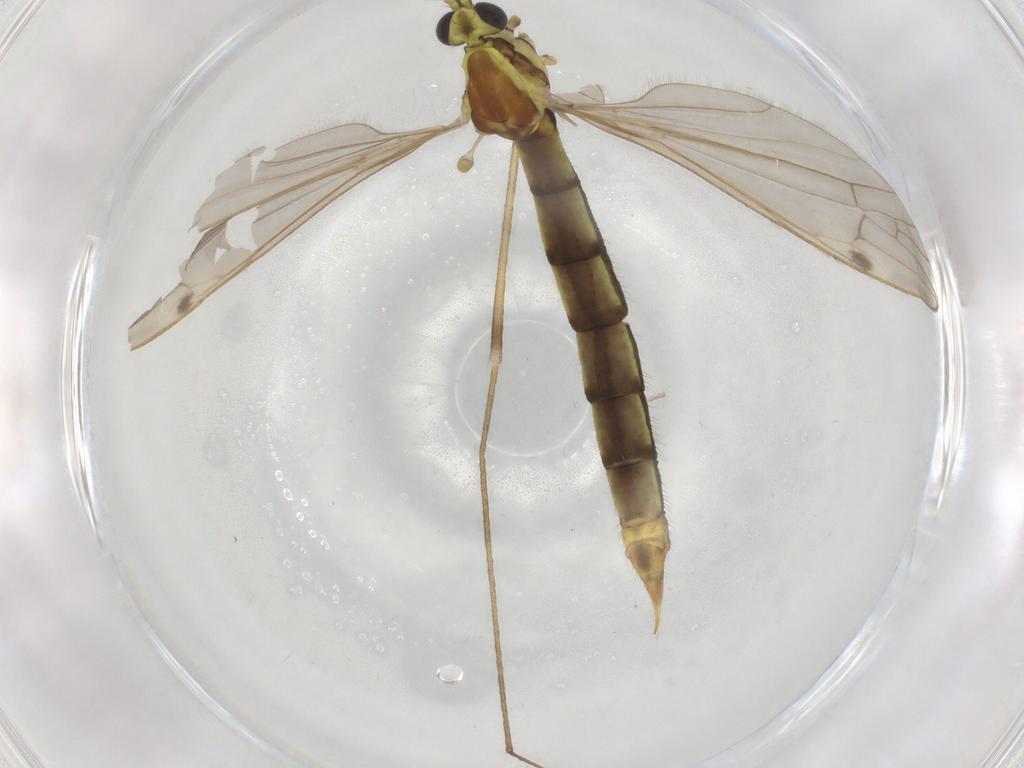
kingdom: Animalia
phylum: Arthropoda
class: Insecta
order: Diptera
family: Limoniidae
